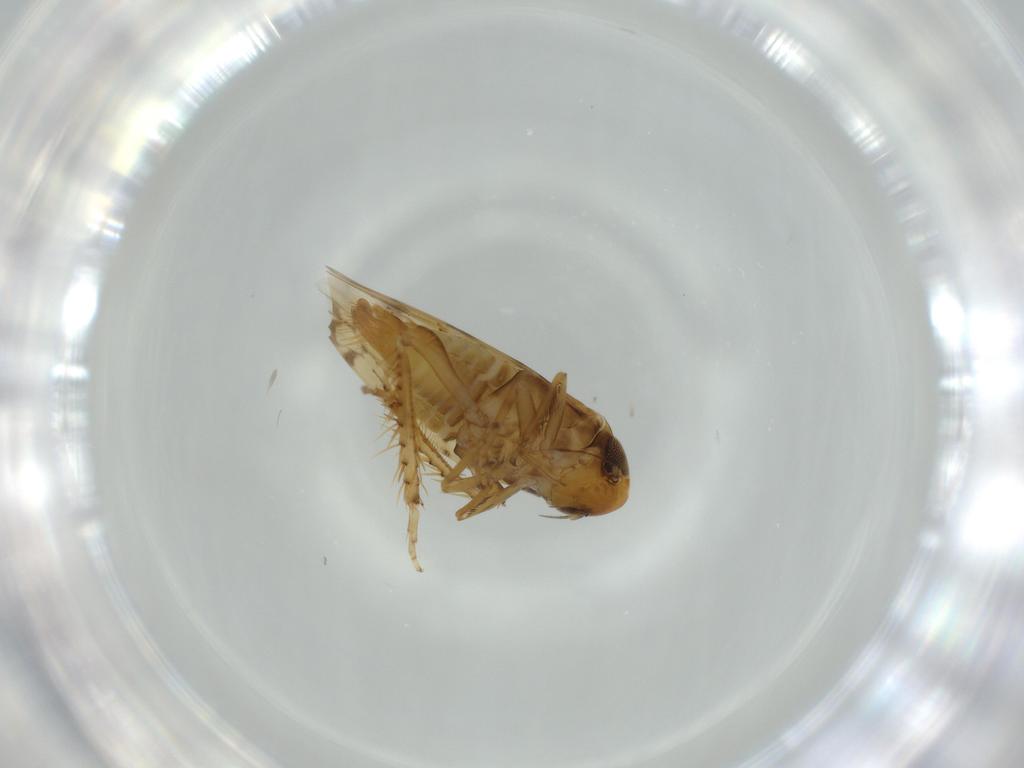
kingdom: Animalia
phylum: Arthropoda
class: Insecta
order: Hemiptera
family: Cicadellidae
